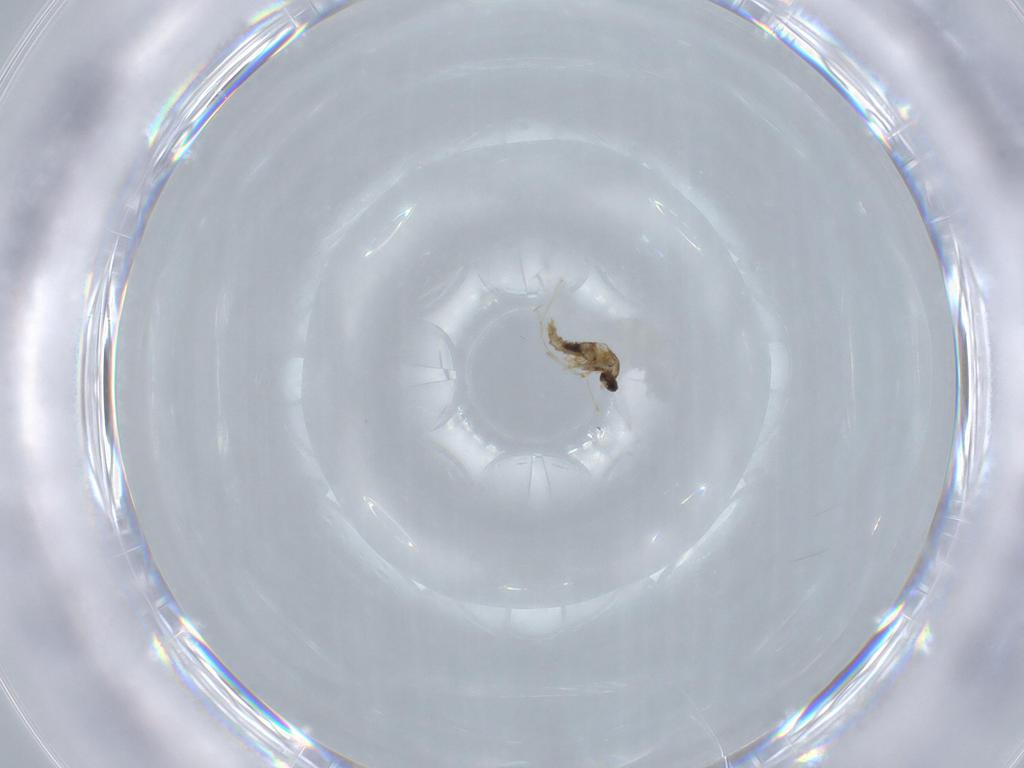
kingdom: Animalia
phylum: Arthropoda
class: Insecta
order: Diptera
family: Cecidomyiidae
